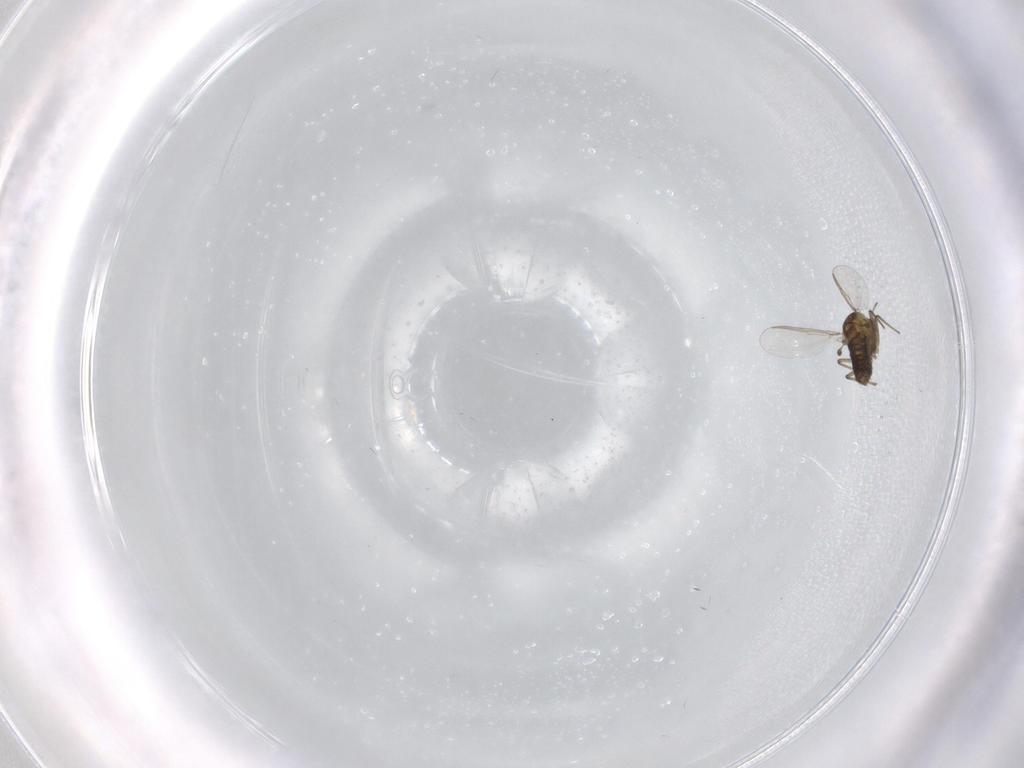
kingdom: Animalia
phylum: Arthropoda
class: Insecta
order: Diptera
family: Chironomidae
